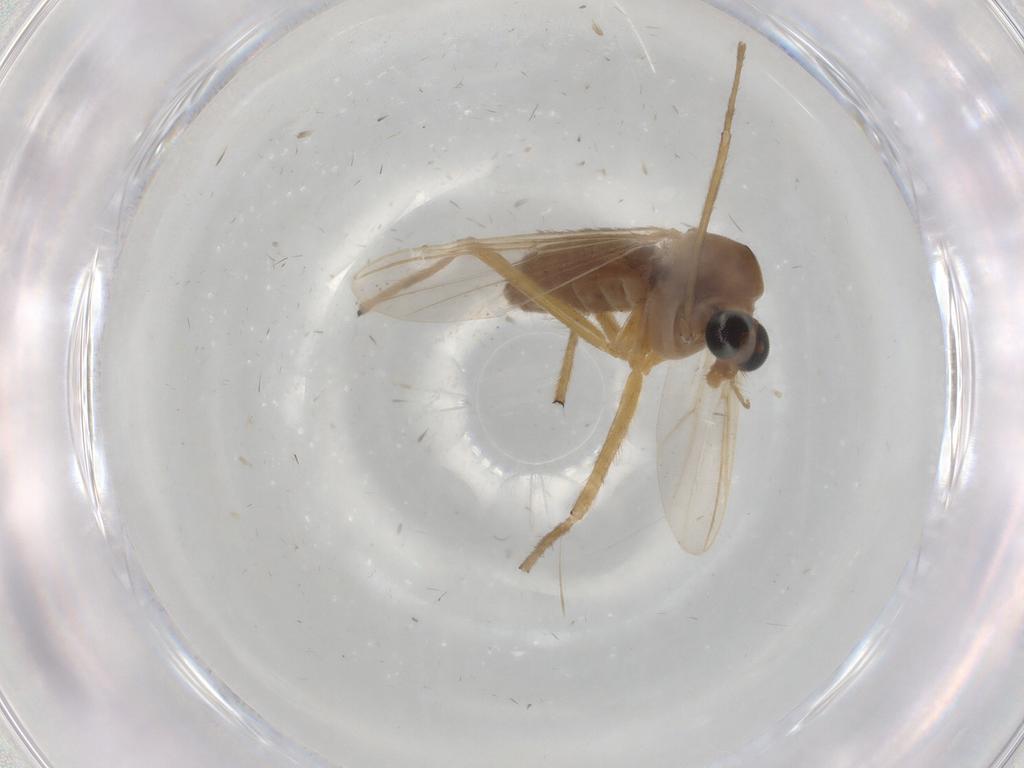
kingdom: Animalia
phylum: Arthropoda
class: Insecta
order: Diptera
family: Chironomidae
